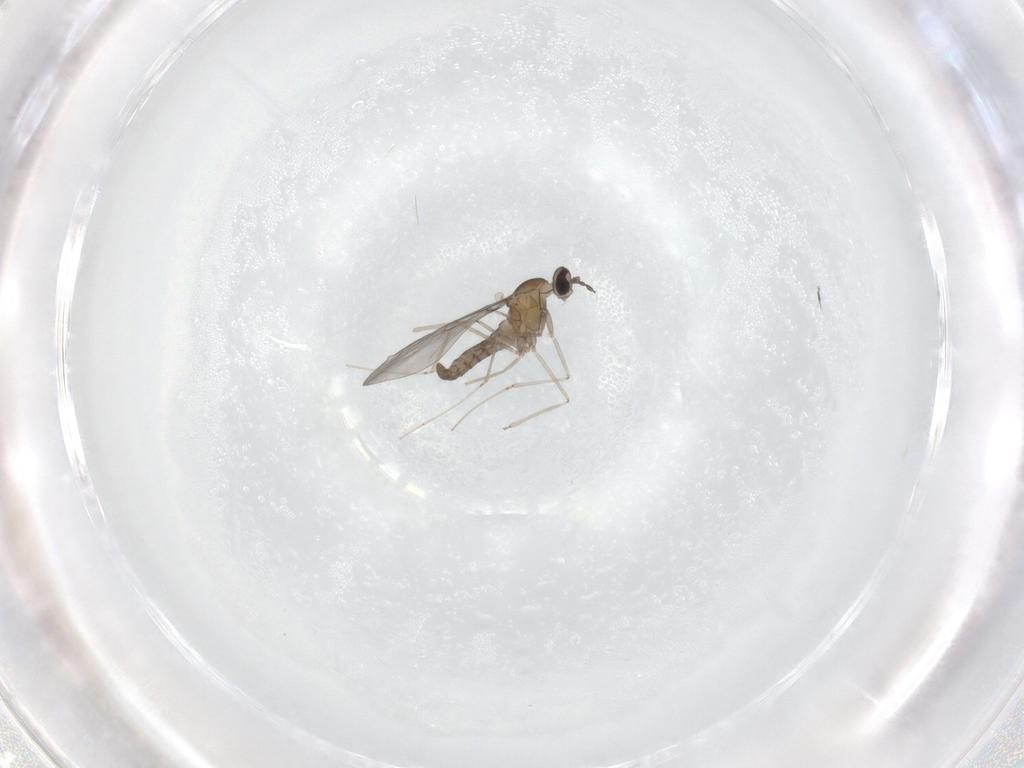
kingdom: Animalia
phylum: Arthropoda
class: Insecta
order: Diptera
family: Cecidomyiidae
